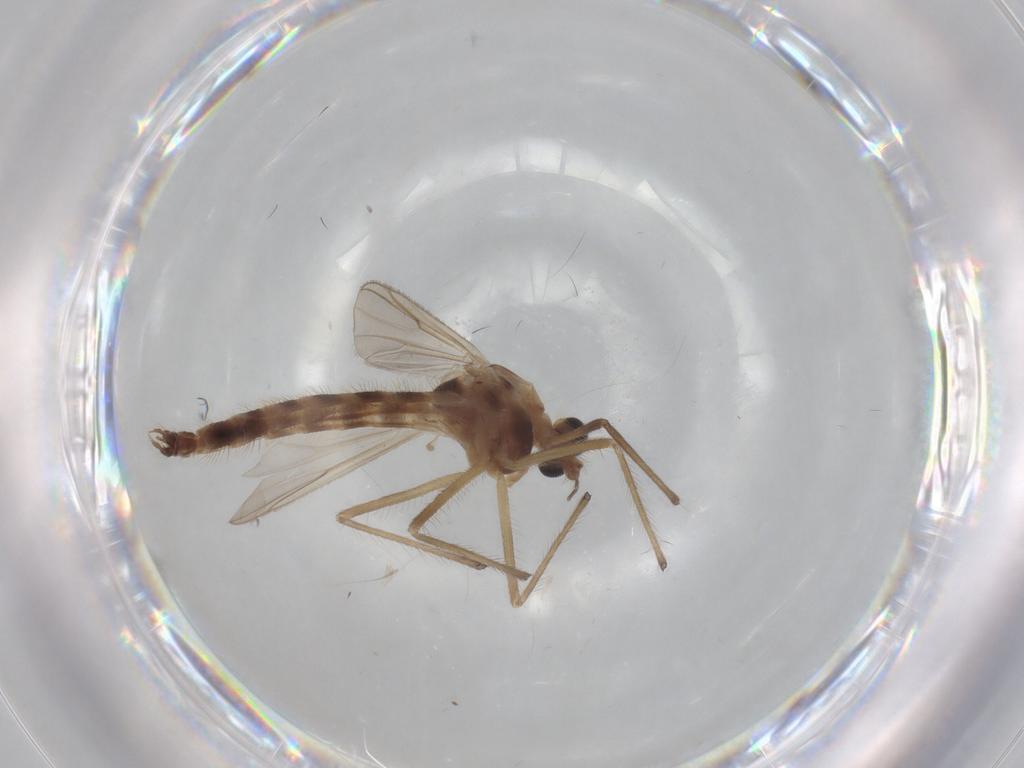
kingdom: Animalia
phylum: Arthropoda
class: Insecta
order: Diptera
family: Chironomidae
